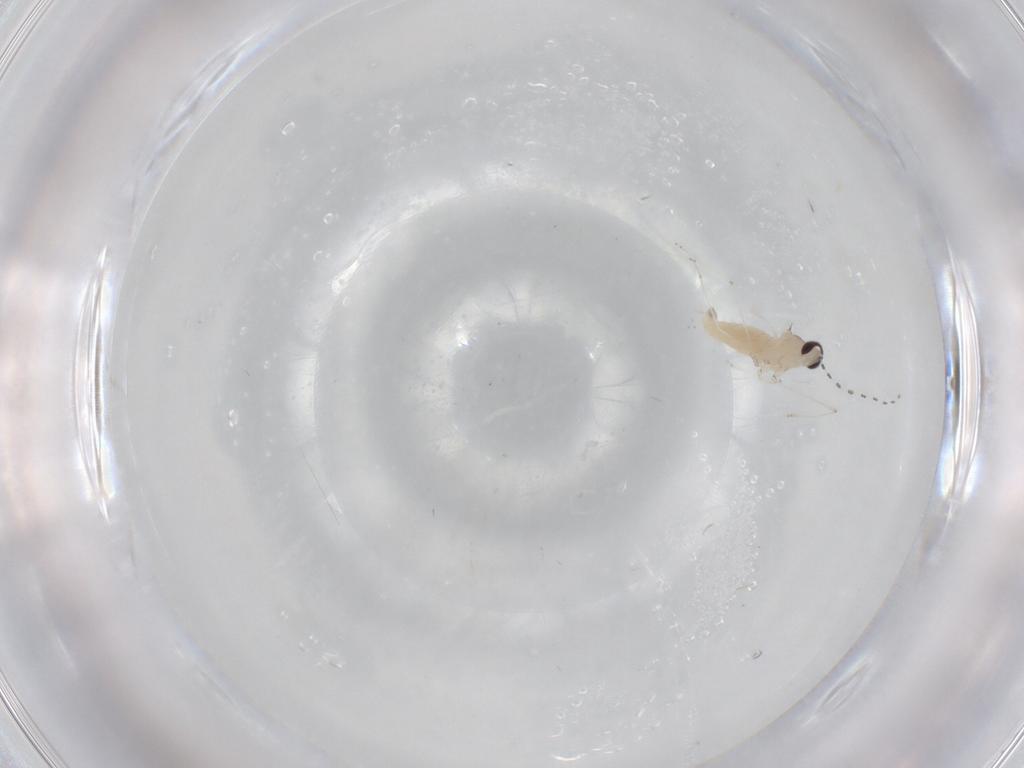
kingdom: Animalia
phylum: Arthropoda
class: Insecta
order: Diptera
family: Cecidomyiidae
